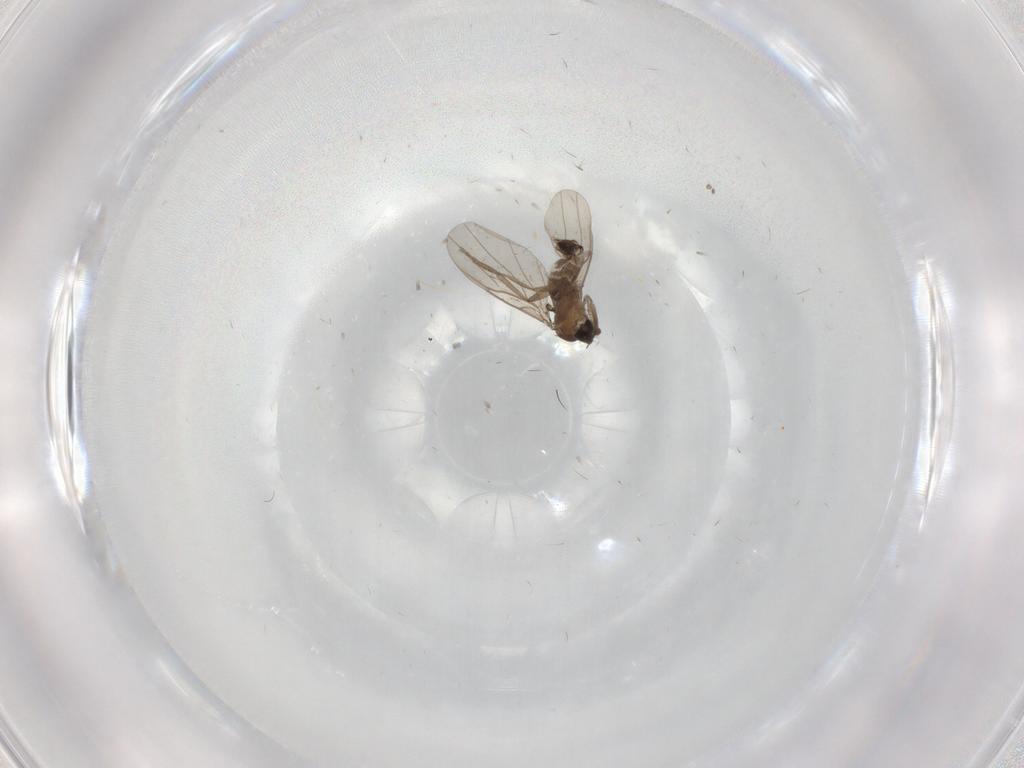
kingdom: Animalia
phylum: Arthropoda
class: Insecta
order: Diptera
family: Phoridae
